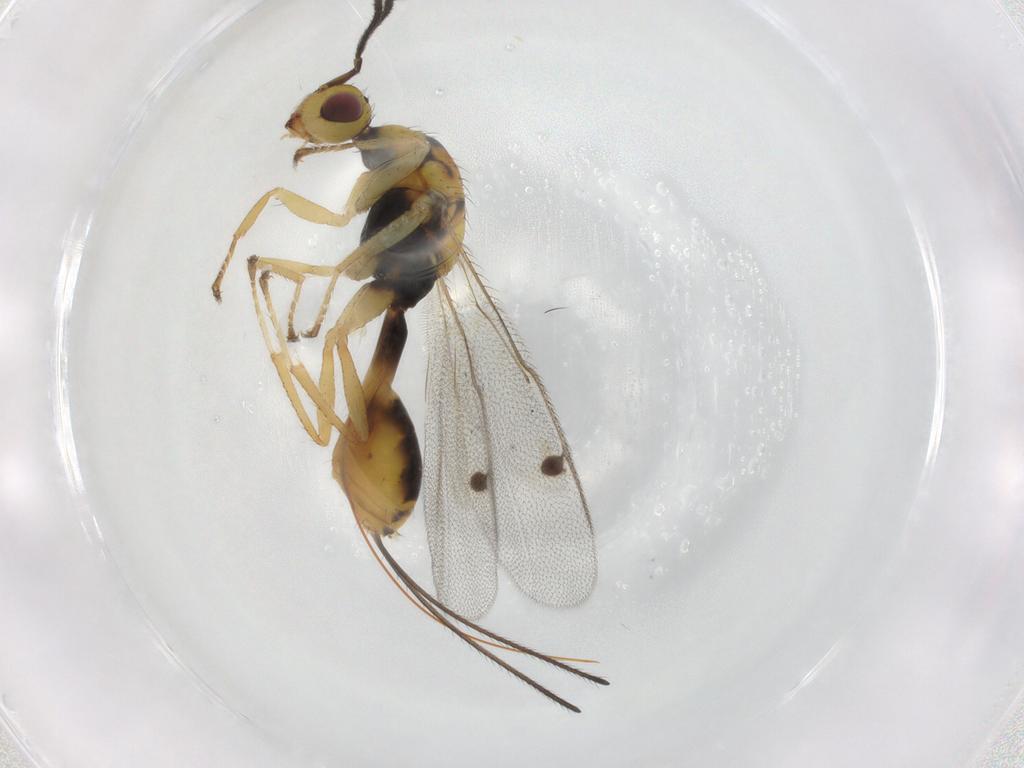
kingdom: Animalia
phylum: Arthropoda
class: Insecta
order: Hymenoptera
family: Megastigmidae
